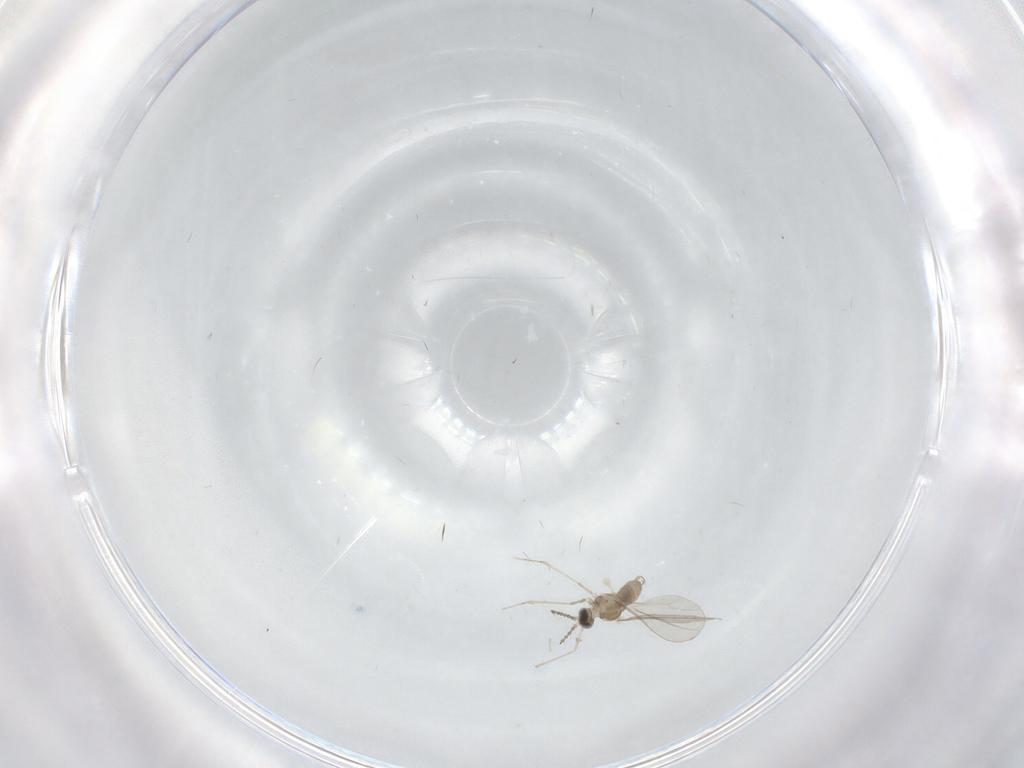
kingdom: Animalia
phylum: Arthropoda
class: Insecta
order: Diptera
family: Cecidomyiidae
